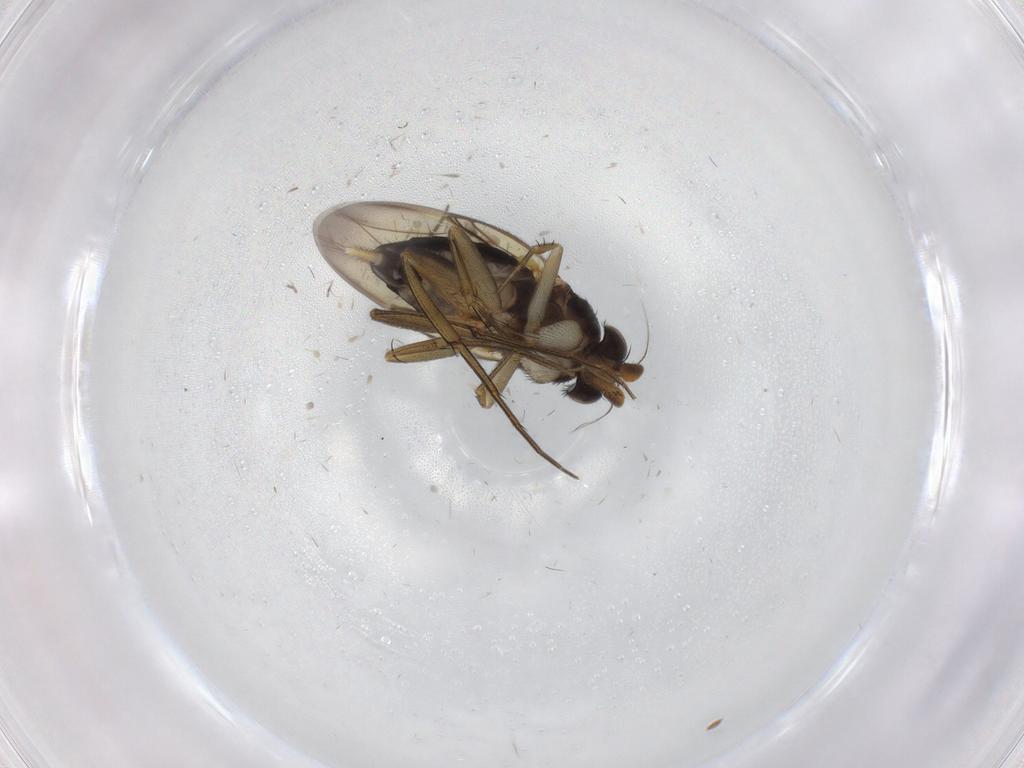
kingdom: Animalia
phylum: Arthropoda
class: Insecta
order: Diptera
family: Phoridae
